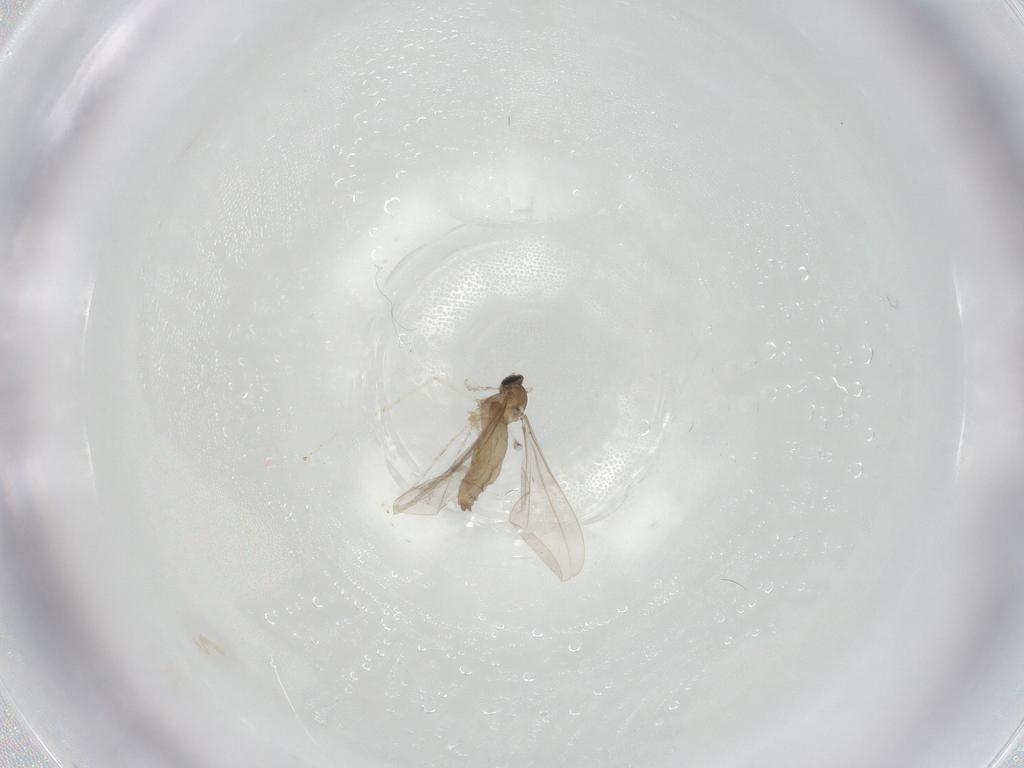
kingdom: Animalia
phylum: Arthropoda
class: Insecta
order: Diptera
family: Cecidomyiidae
